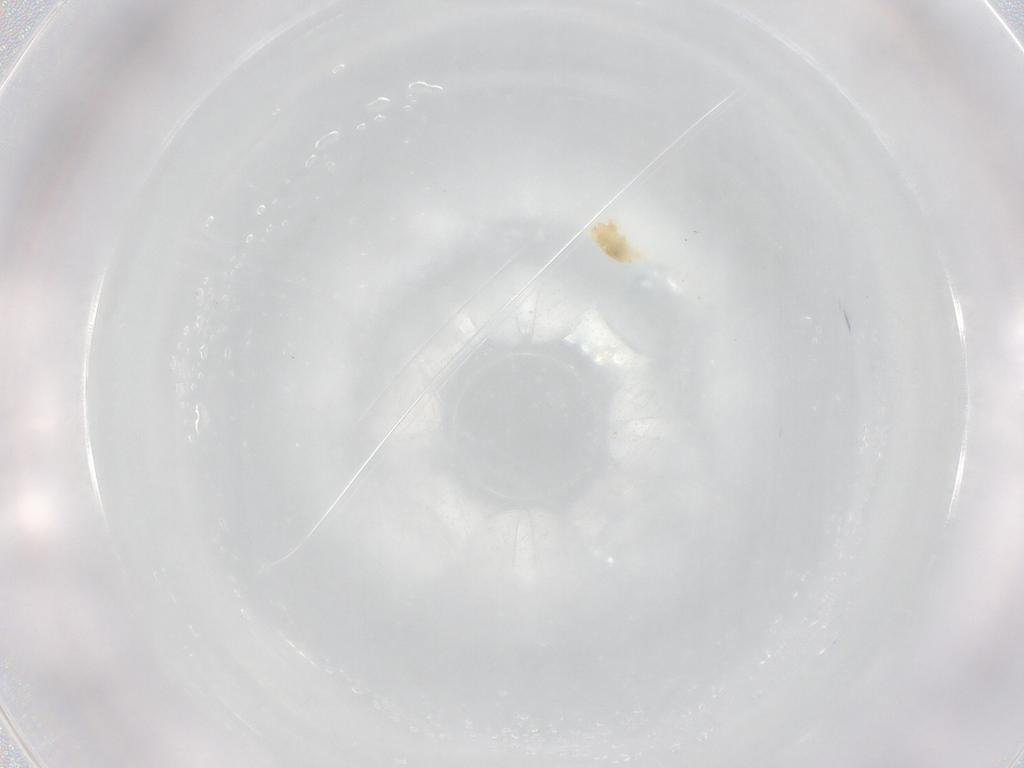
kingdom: Animalia
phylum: Arthropoda
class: Arachnida
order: Trombidiformes
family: Eupodidae
